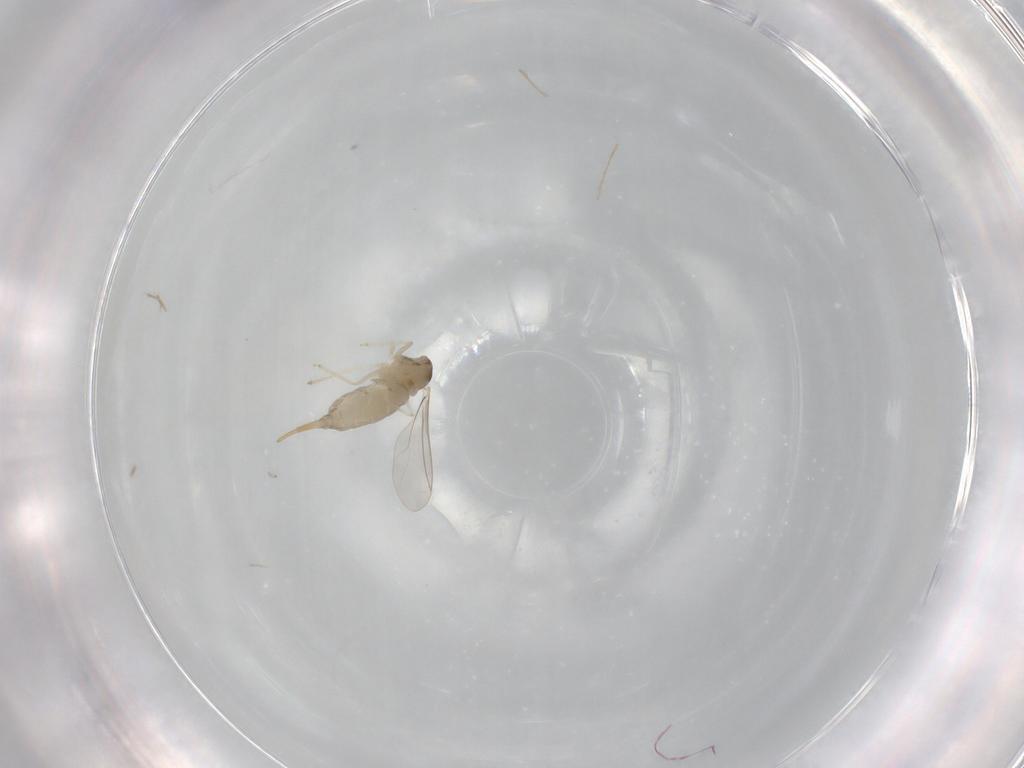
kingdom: Animalia
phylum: Arthropoda
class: Insecta
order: Diptera
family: Cecidomyiidae
